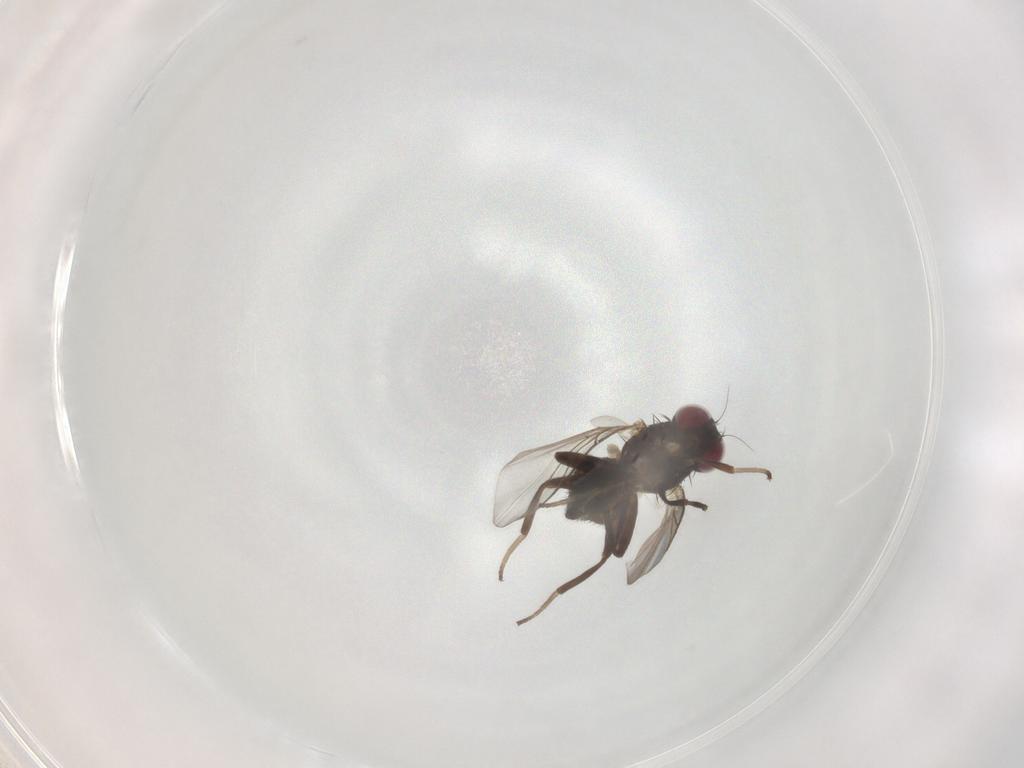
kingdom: Animalia
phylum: Arthropoda
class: Insecta
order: Diptera
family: Agromyzidae
